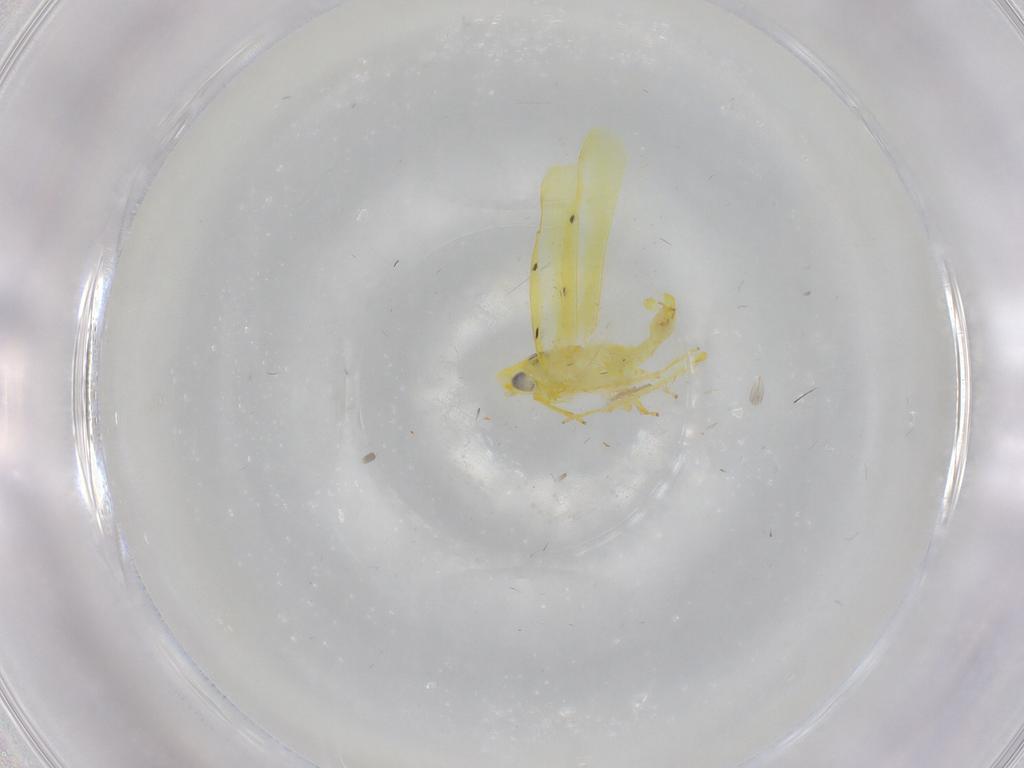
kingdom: Animalia
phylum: Arthropoda
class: Insecta
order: Hemiptera
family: Cicadellidae
